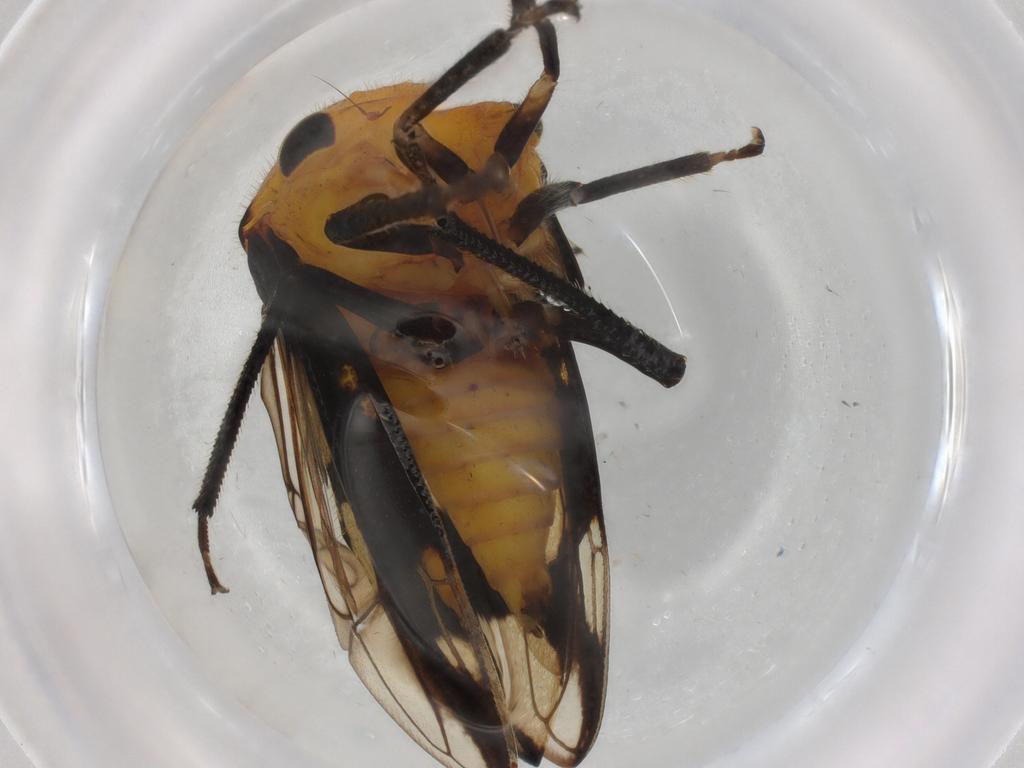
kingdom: Animalia
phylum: Arthropoda
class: Insecta
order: Hemiptera
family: Membracidae
